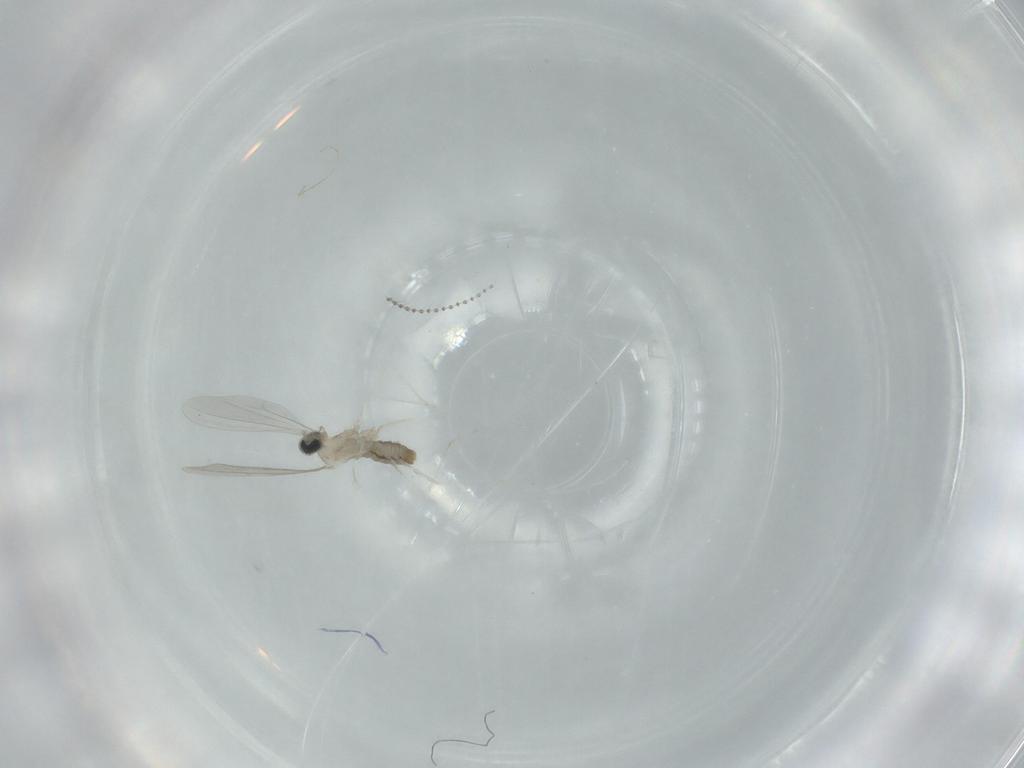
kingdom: Animalia
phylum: Arthropoda
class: Insecta
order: Diptera
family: Cecidomyiidae
